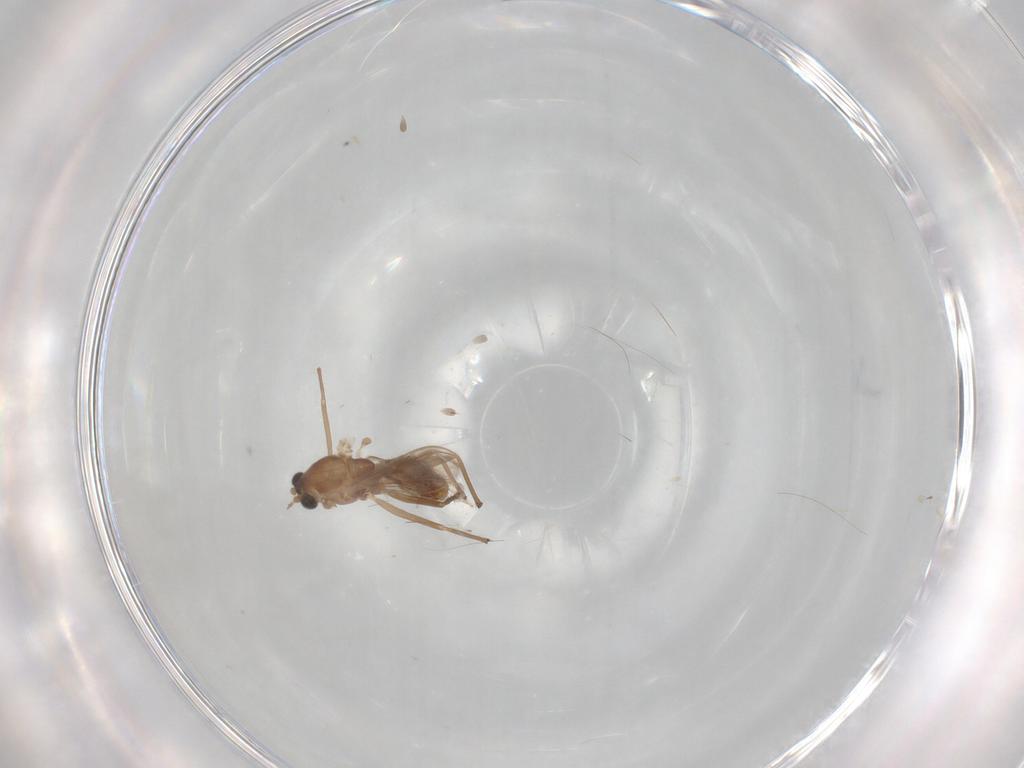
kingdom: Animalia
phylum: Arthropoda
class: Insecta
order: Diptera
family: Chironomidae
